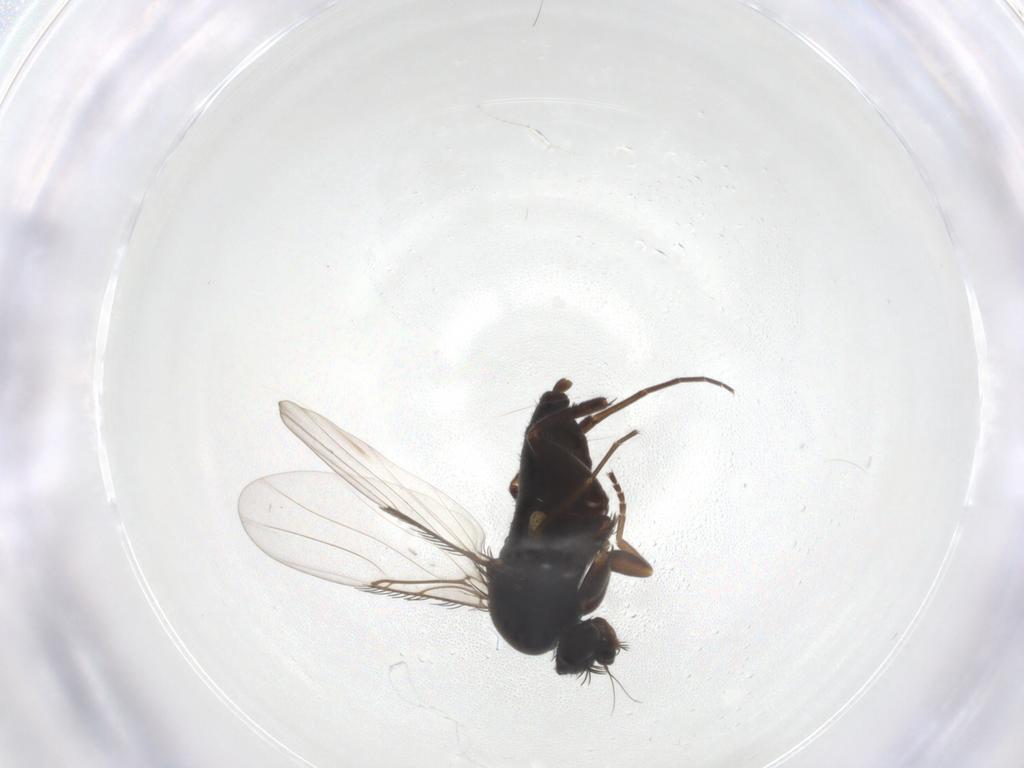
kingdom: Animalia
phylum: Arthropoda
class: Insecta
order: Diptera
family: Phoridae
